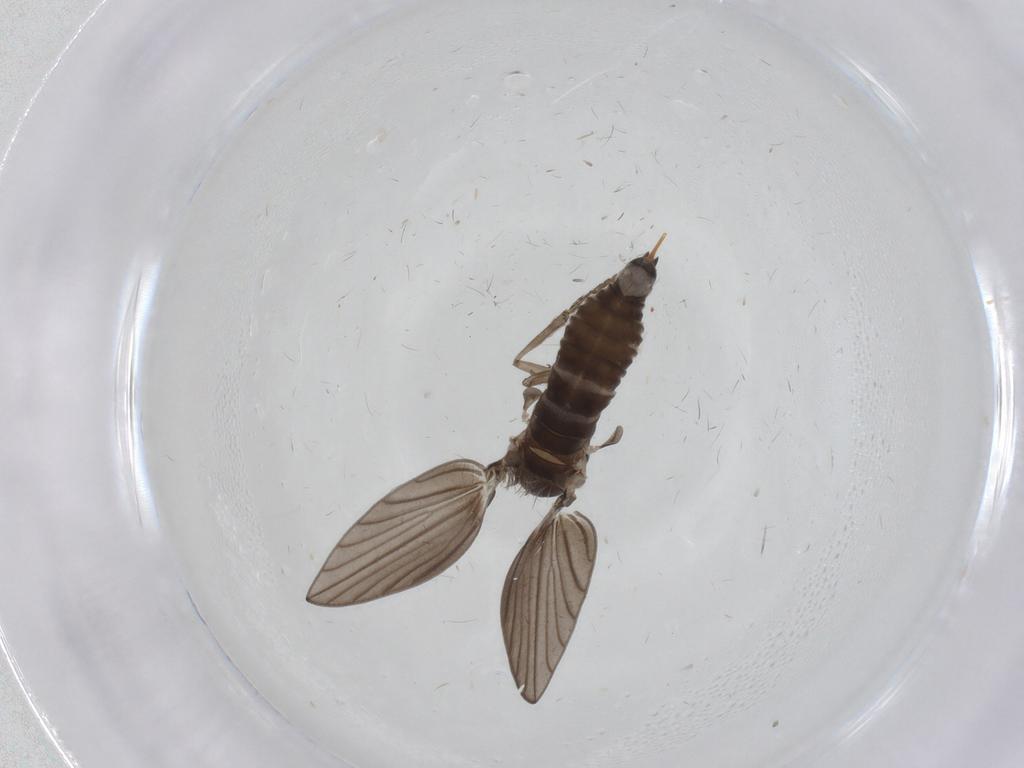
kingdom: Animalia
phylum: Arthropoda
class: Insecta
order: Diptera
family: Psychodidae
